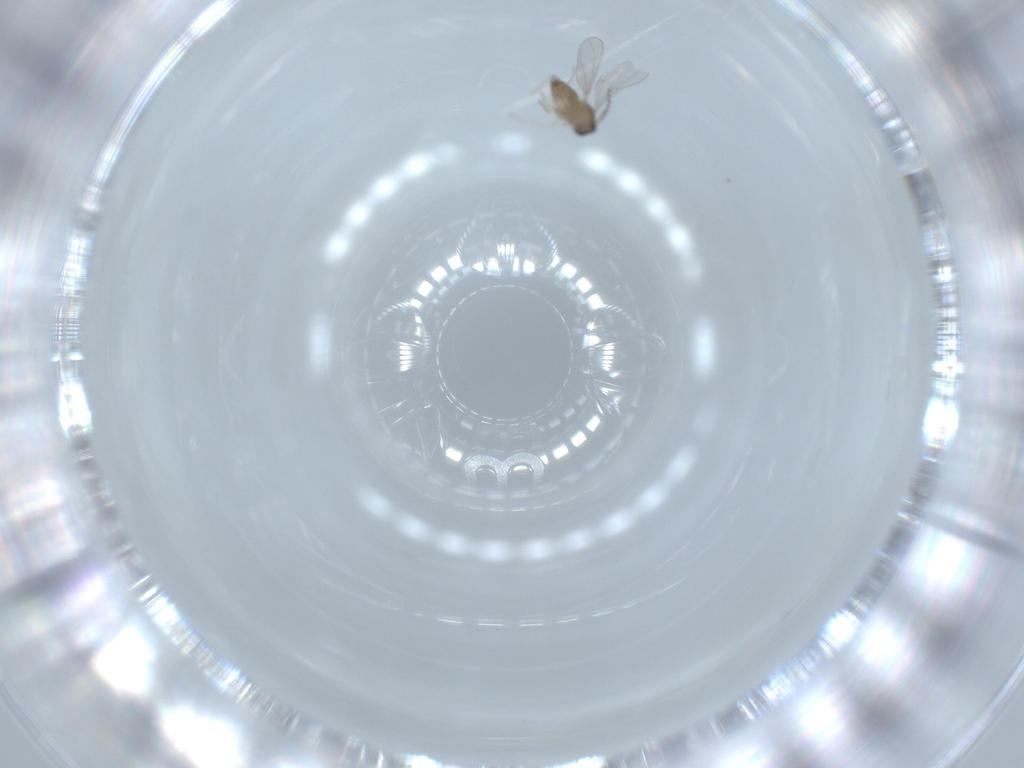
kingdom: Animalia
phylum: Arthropoda
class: Insecta
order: Diptera
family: Cecidomyiidae
